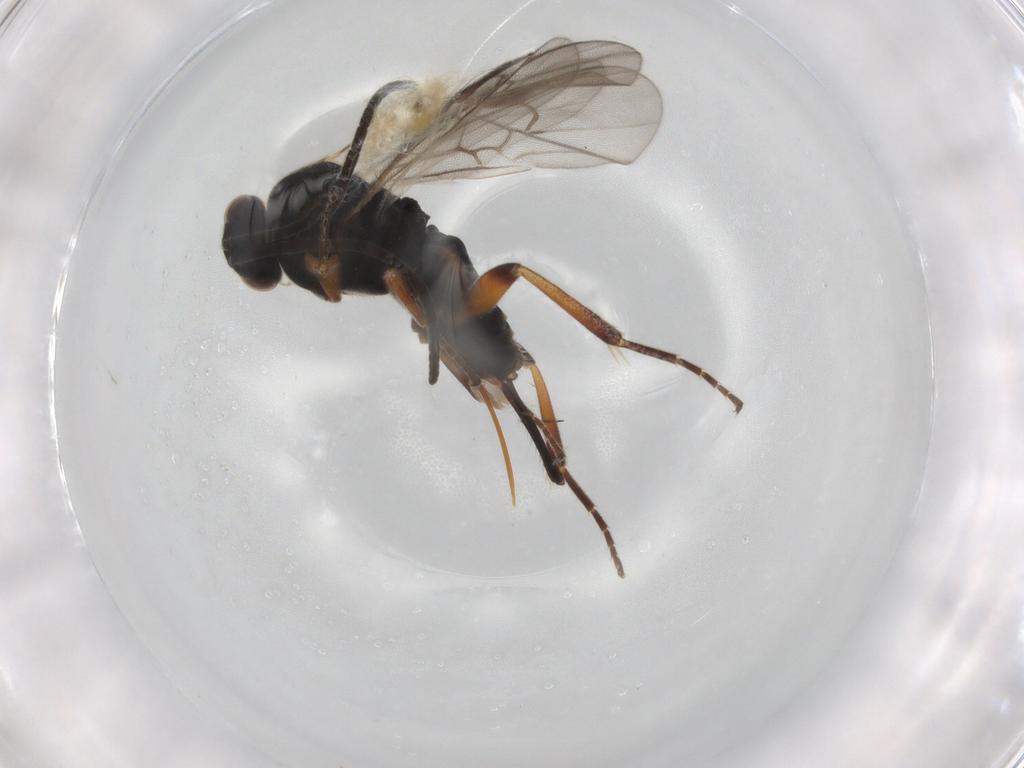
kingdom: Animalia
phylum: Arthropoda
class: Insecta
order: Hymenoptera
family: Braconidae
